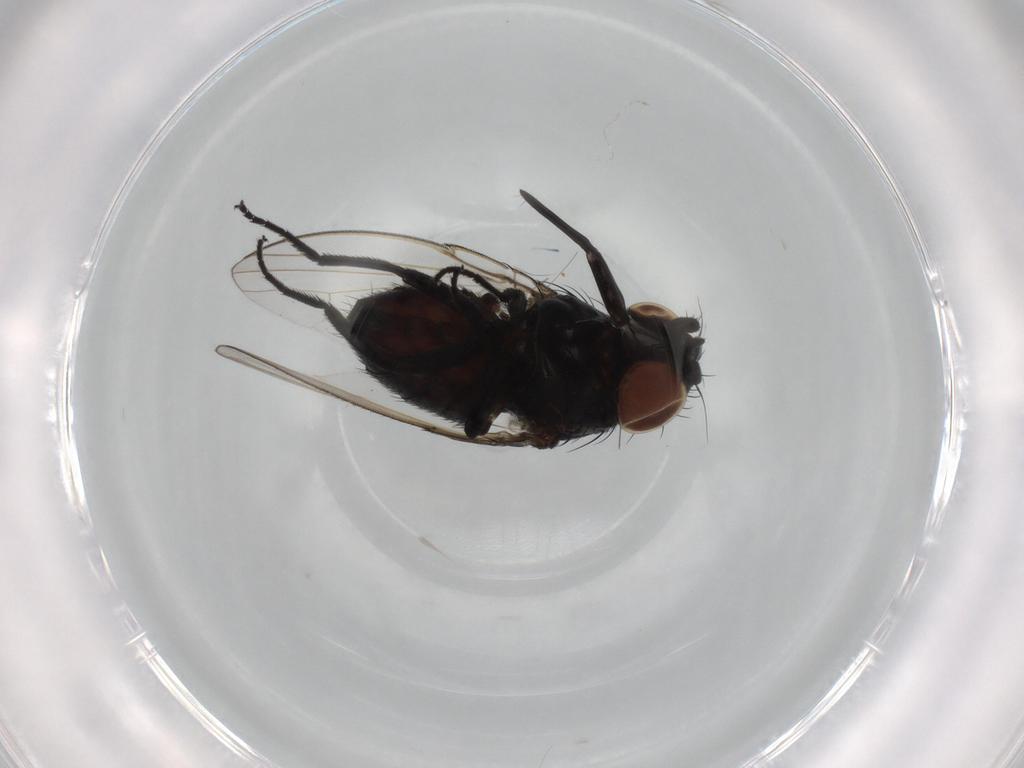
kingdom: Animalia
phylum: Arthropoda
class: Insecta
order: Diptera
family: Milichiidae
